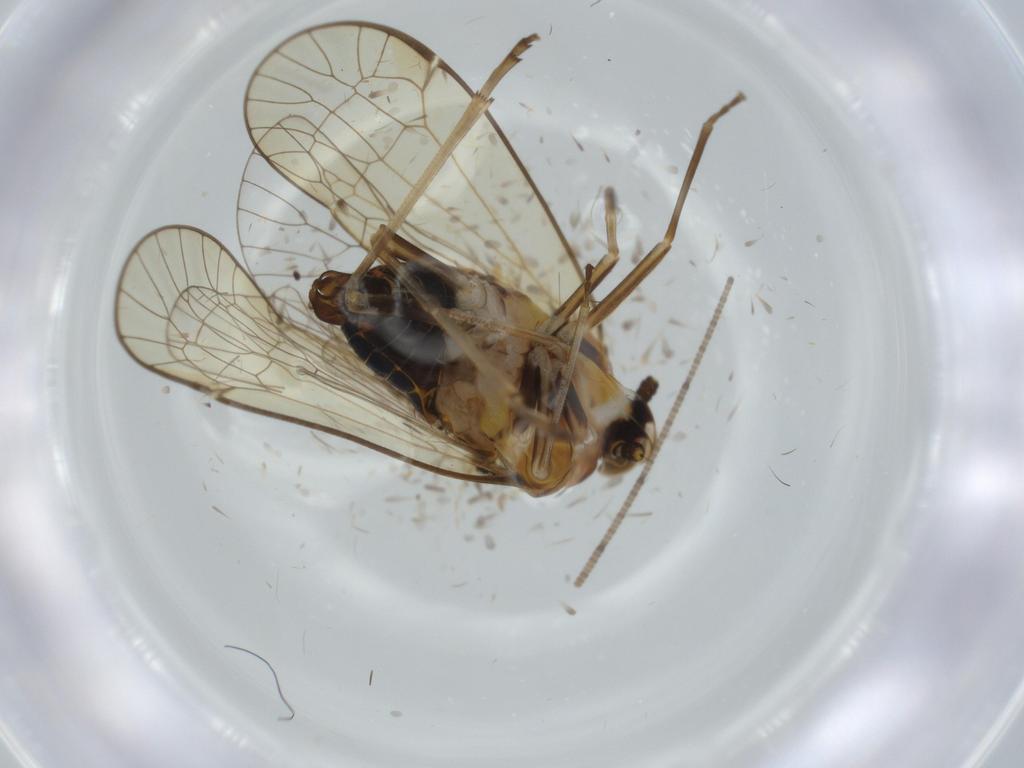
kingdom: Animalia
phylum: Arthropoda
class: Insecta
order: Hemiptera
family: Kinnaridae
